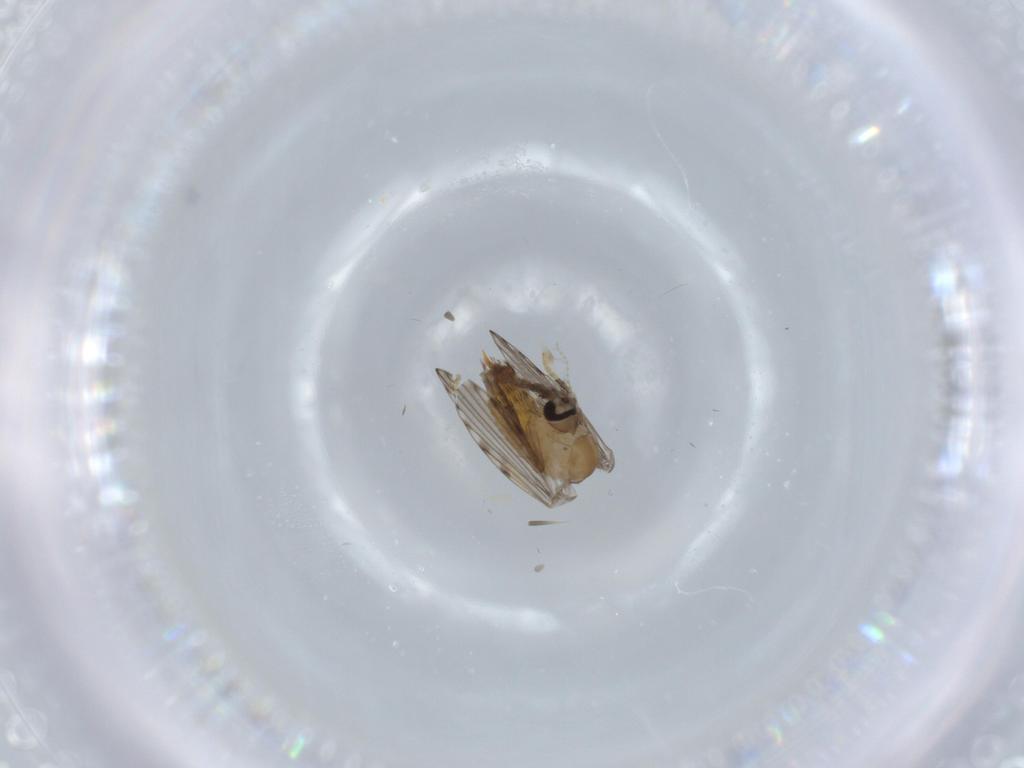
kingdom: Animalia
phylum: Arthropoda
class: Insecta
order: Diptera
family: Psychodidae
